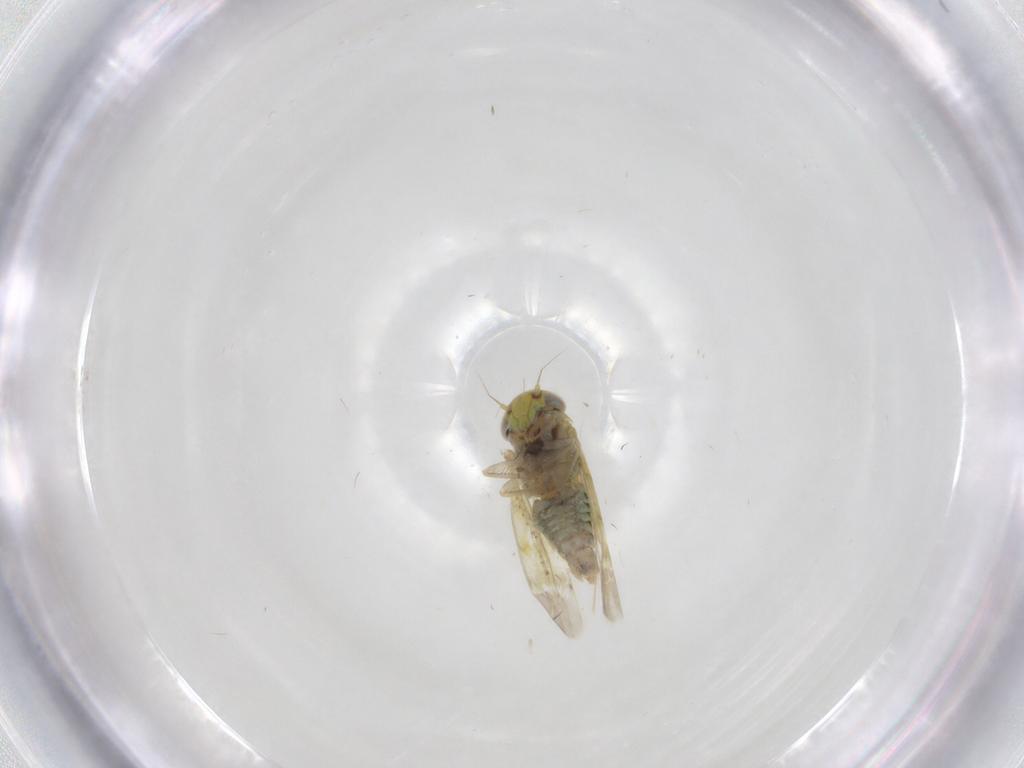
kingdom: Animalia
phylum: Arthropoda
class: Insecta
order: Hemiptera
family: Cicadellidae
